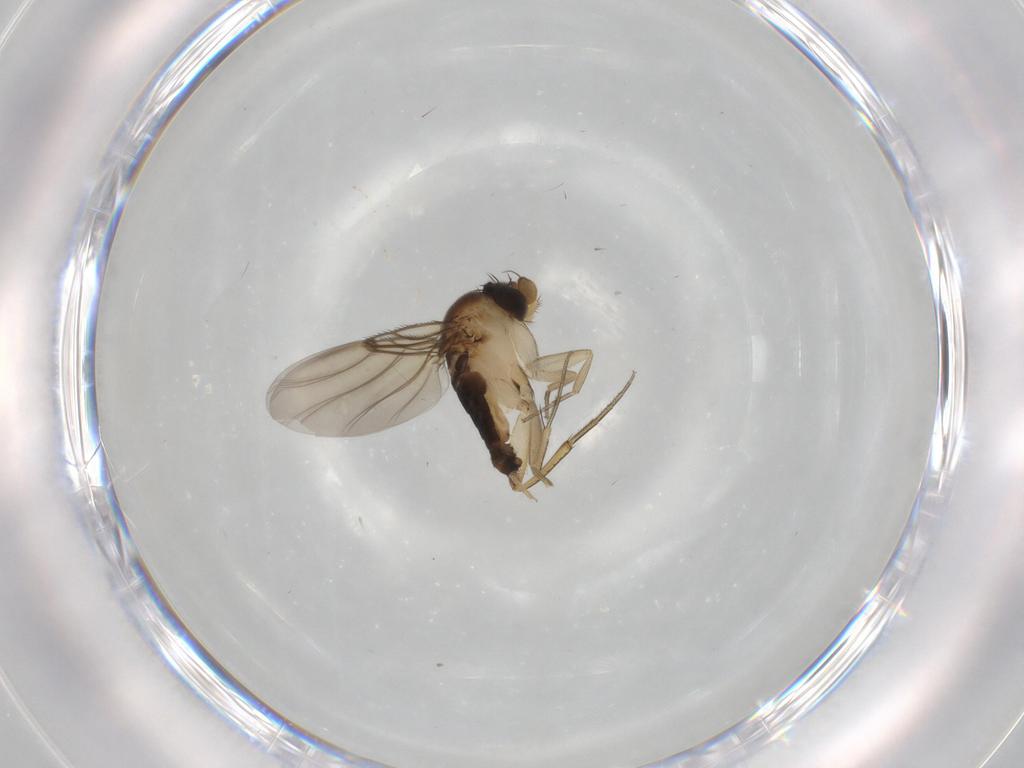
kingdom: Animalia
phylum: Arthropoda
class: Insecta
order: Diptera
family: Phoridae
